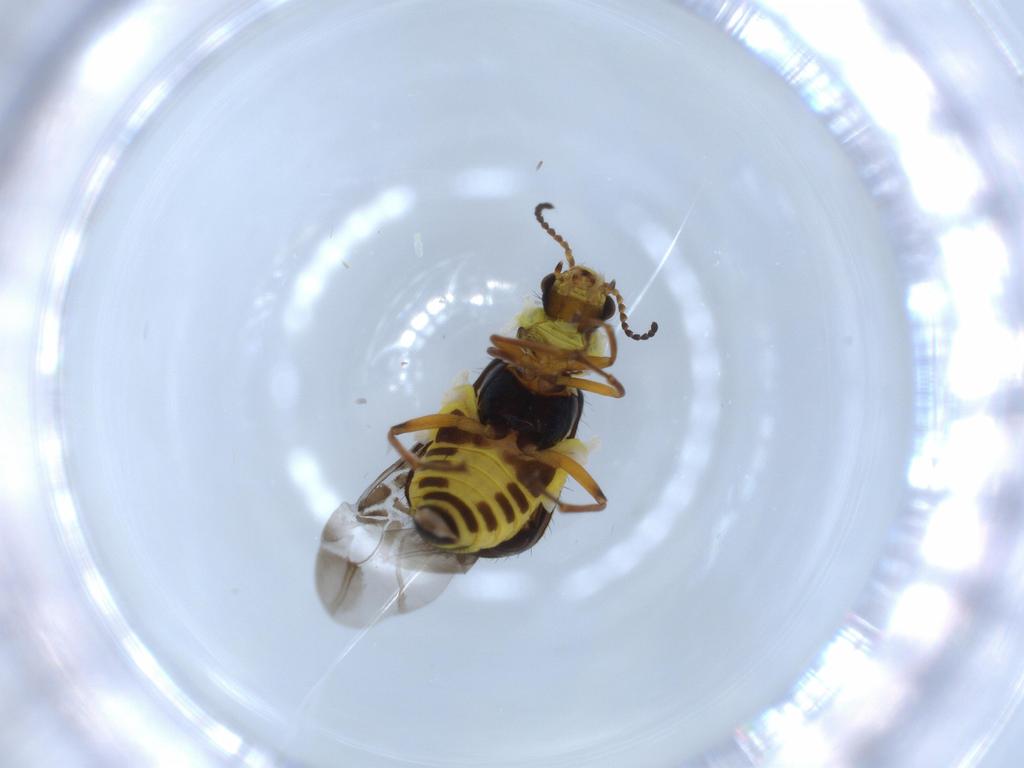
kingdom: Animalia
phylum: Arthropoda
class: Insecta
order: Coleoptera
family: Melyridae
